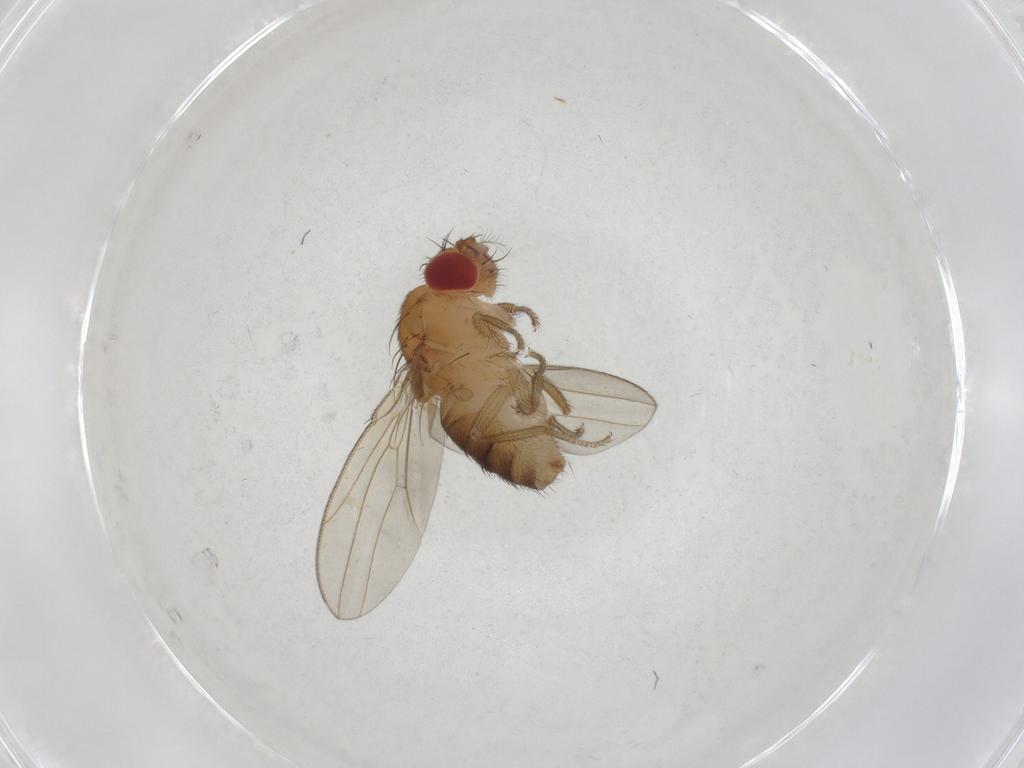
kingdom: Animalia
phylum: Arthropoda
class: Insecta
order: Diptera
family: Drosophilidae
